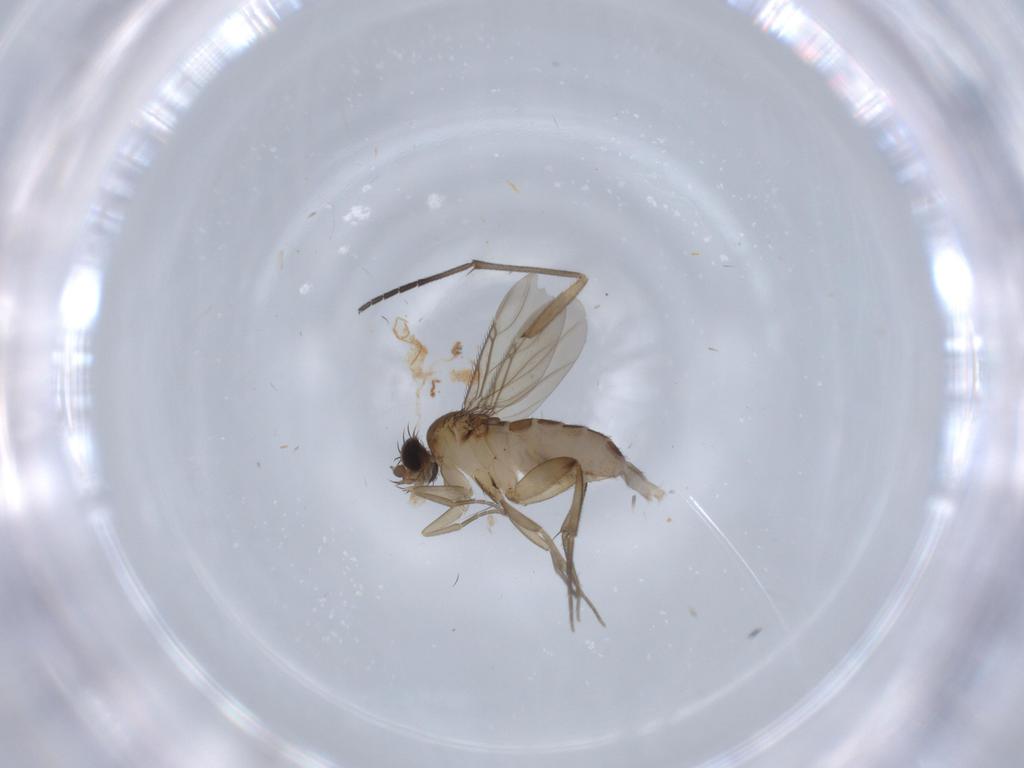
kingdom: Animalia
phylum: Arthropoda
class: Insecta
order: Diptera
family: Phoridae
